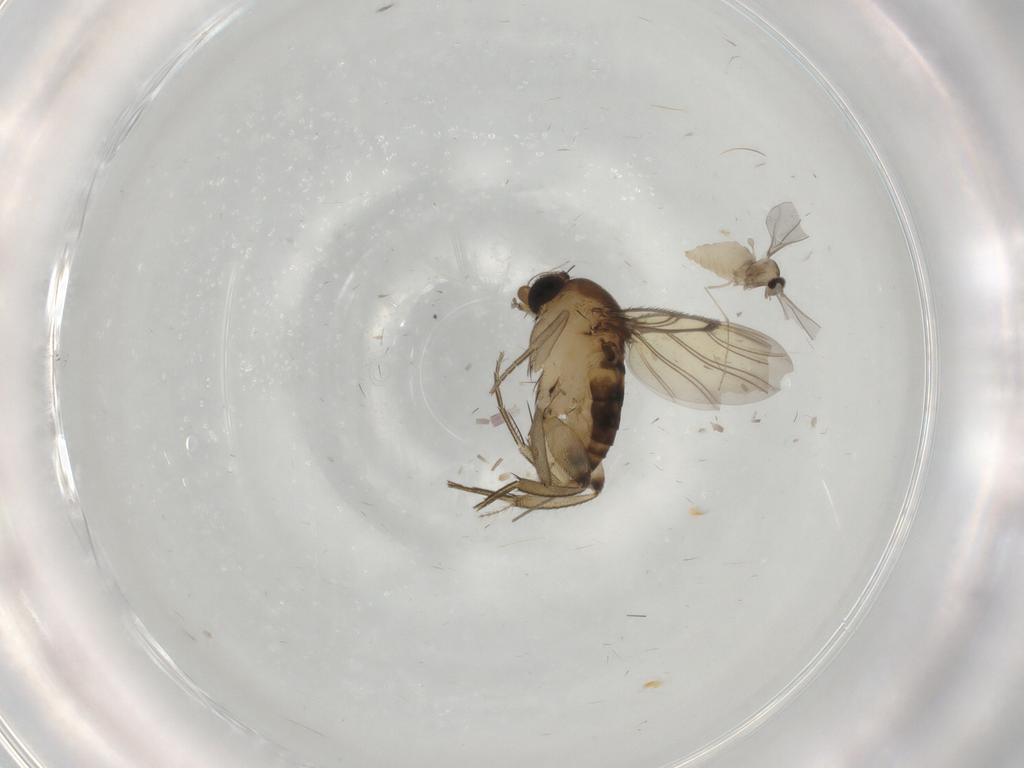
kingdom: Animalia
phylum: Arthropoda
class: Insecta
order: Diptera
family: Phoridae
